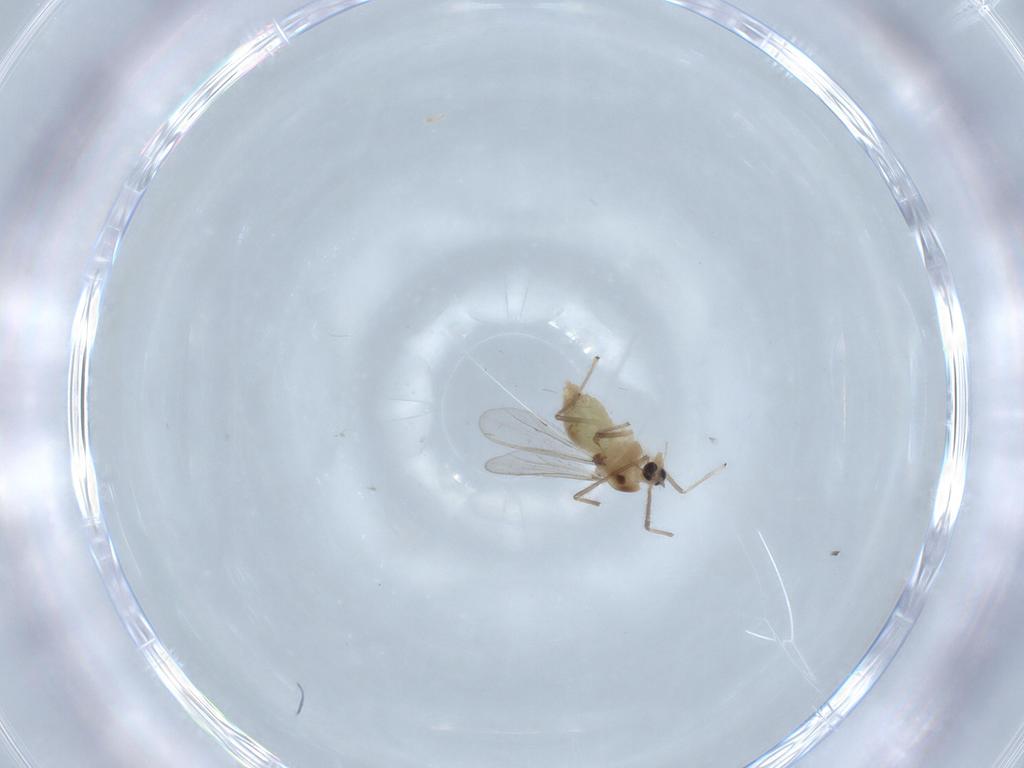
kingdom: Animalia
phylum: Arthropoda
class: Insecta
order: Diptera
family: Chironomidae
